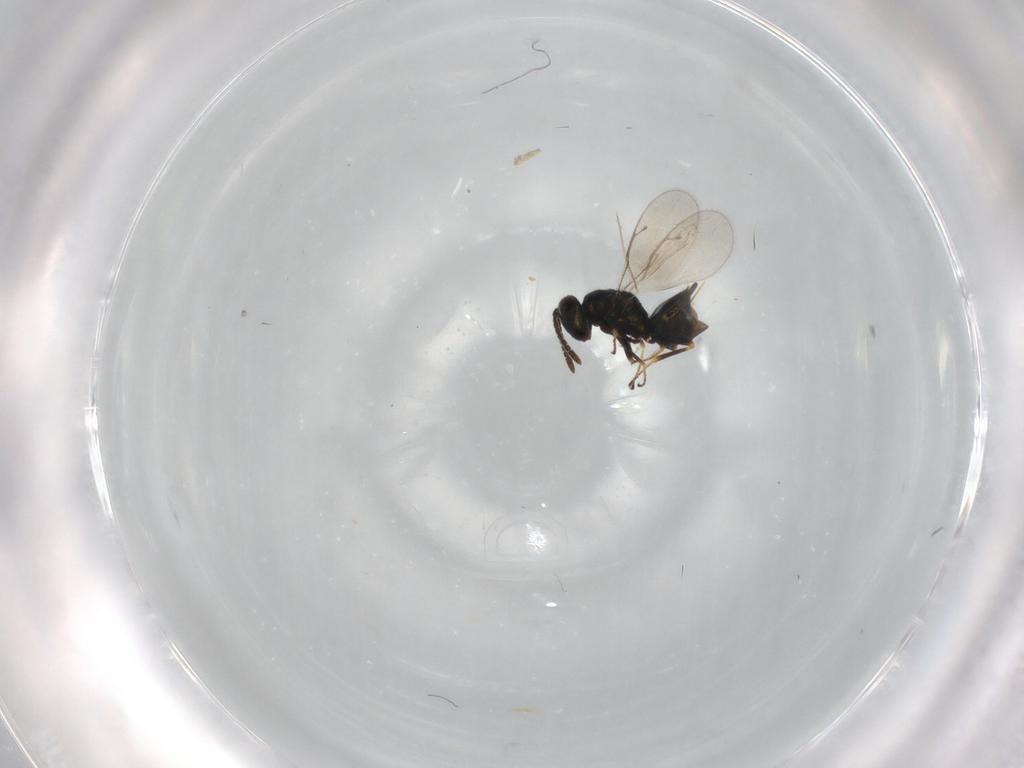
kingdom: Animalia
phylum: Arthropoda
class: Insecta
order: Hymenoptera
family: Pteromalidae
